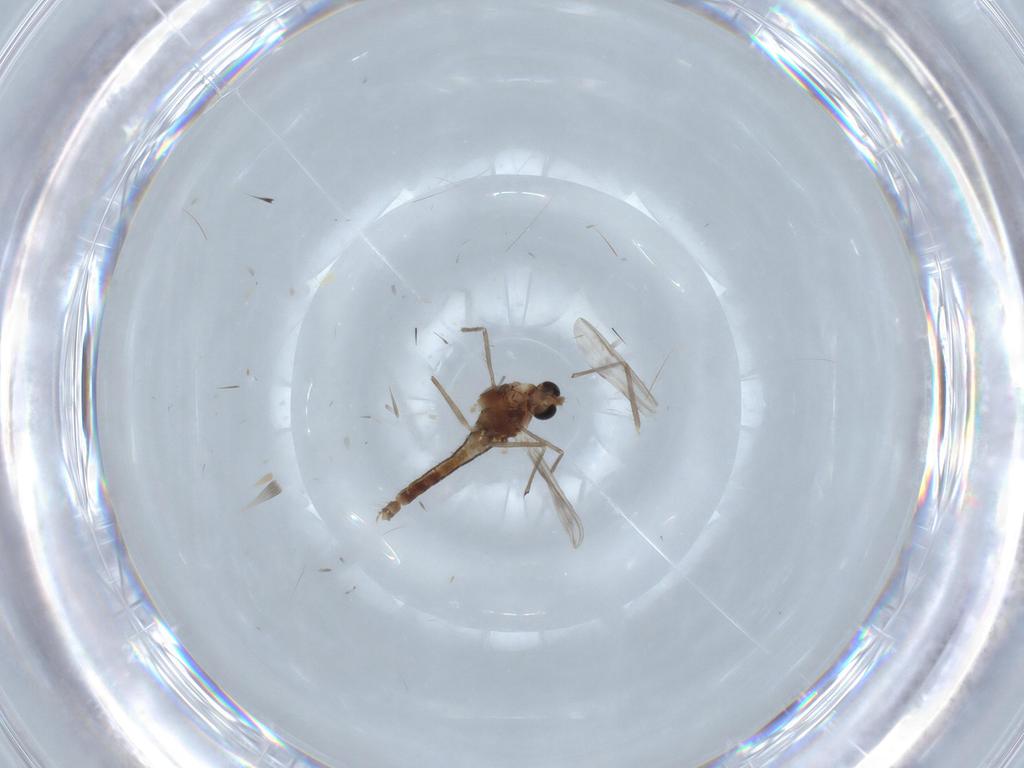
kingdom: Animalia
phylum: Arthropoda
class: Insecta
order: Diptera
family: Chironomidae
